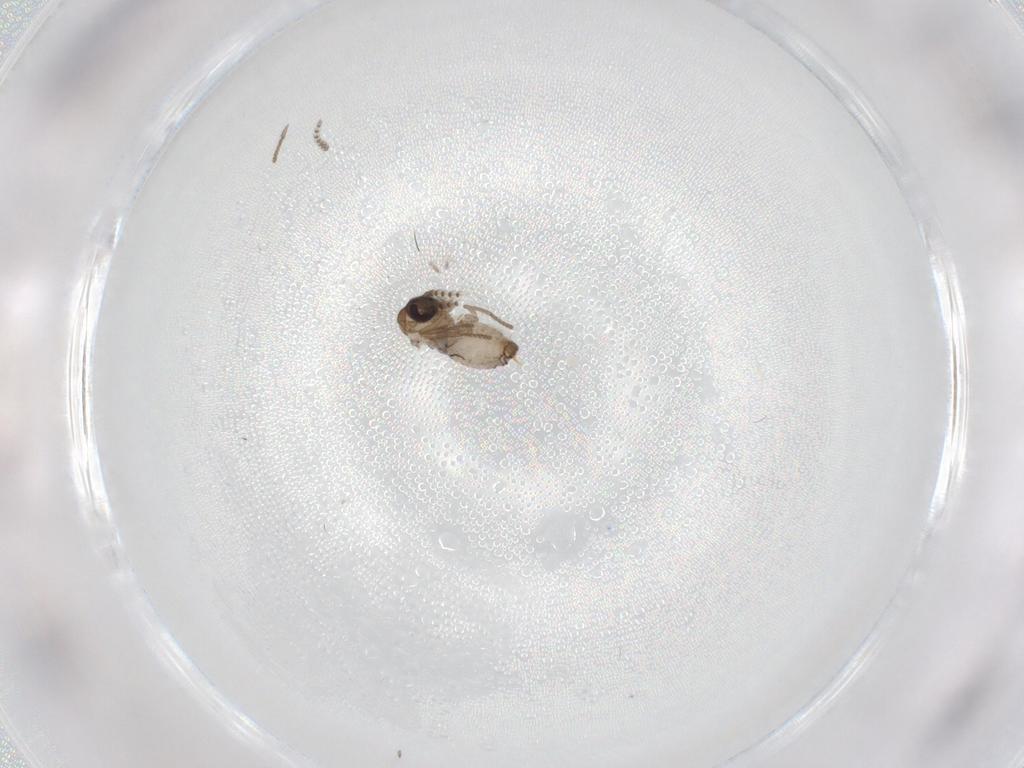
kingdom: Animalia
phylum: Arthropoda
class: Insecta
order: Diptera
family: Psychodidae
